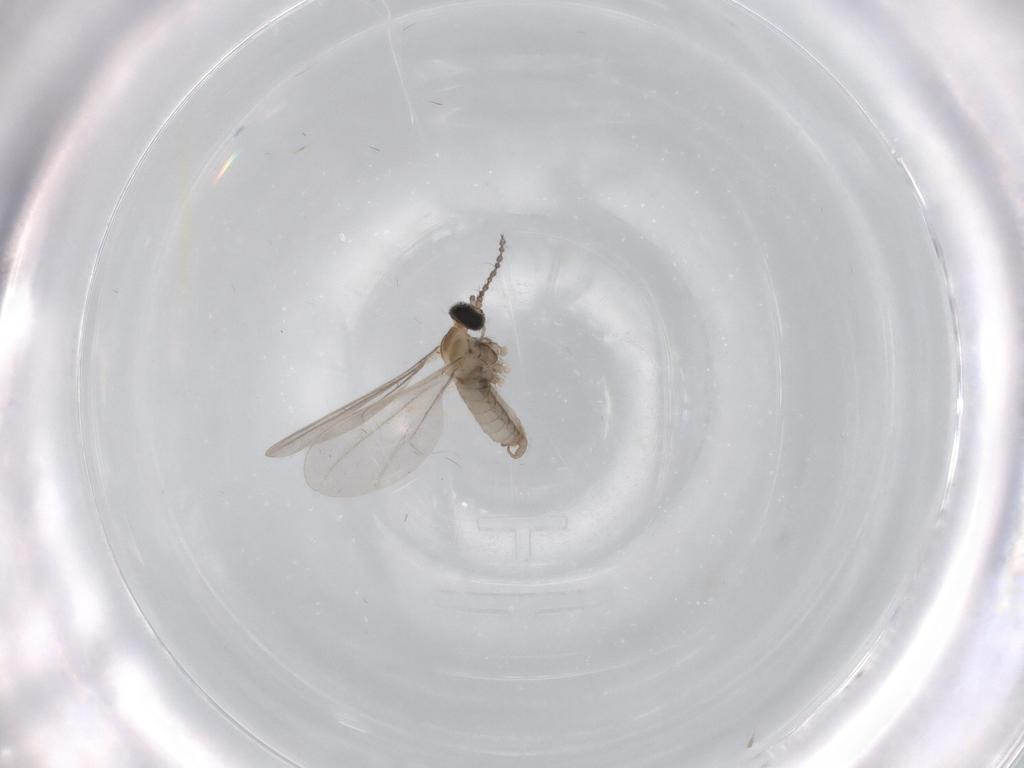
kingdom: Animalia
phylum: Arthropoda
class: Insecta
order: Diptera
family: Cecidomyiidae
